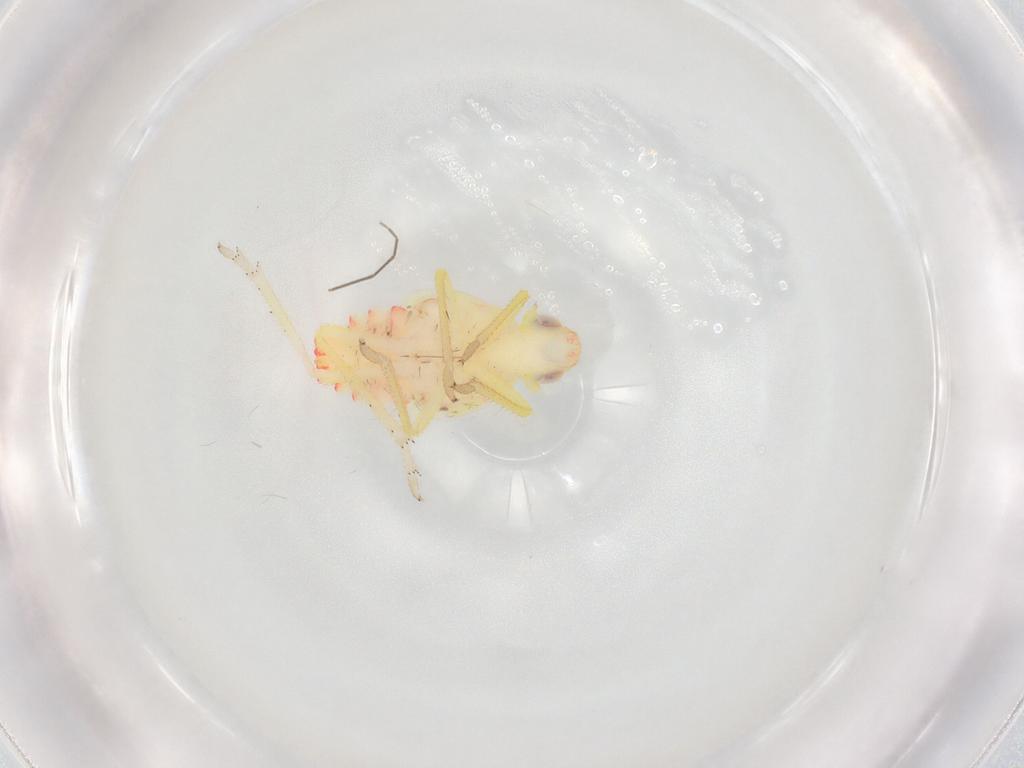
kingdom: Animalia
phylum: Arthropoda
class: Insecta
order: Hemiptera
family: Tropiduchidae
